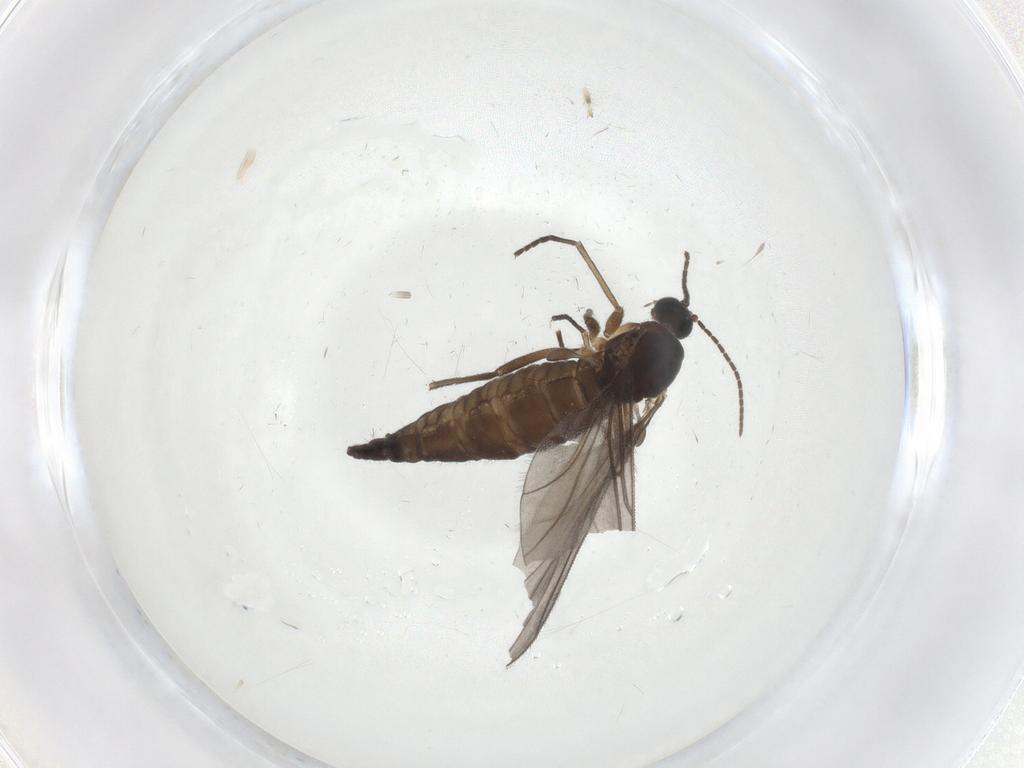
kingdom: Animalia
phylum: Arthropoda
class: Insecta
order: Diptera
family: Sciaridae
